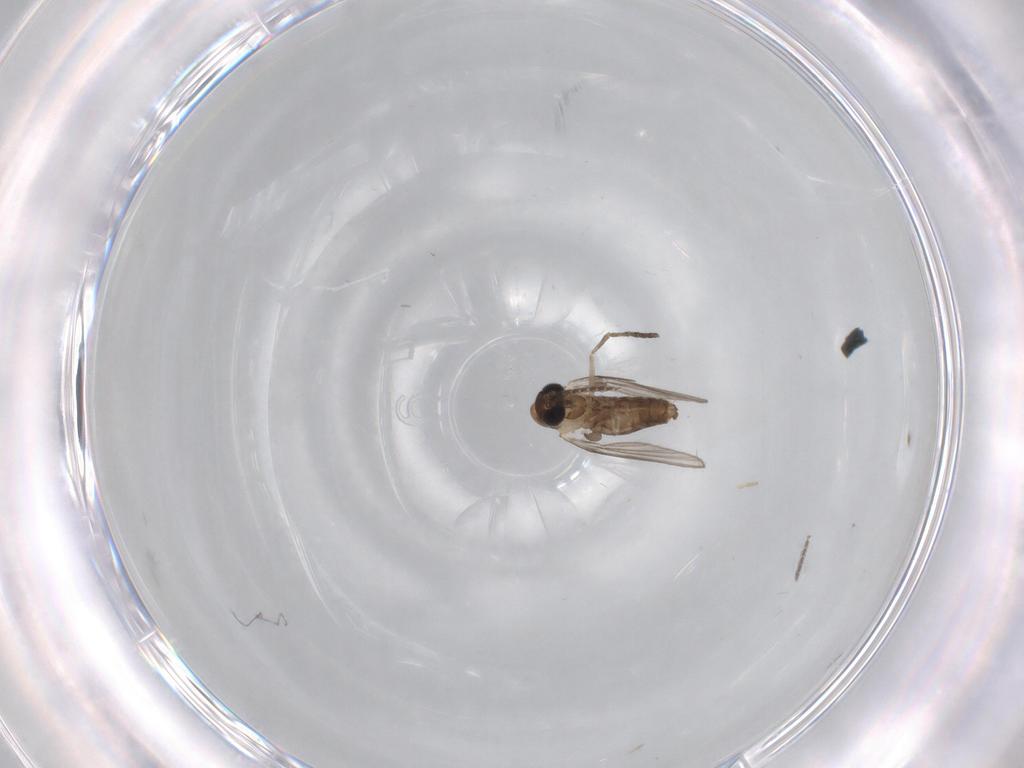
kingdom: Animalia
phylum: Arthropoda
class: Insecta
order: Diptera
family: Psychodidae
